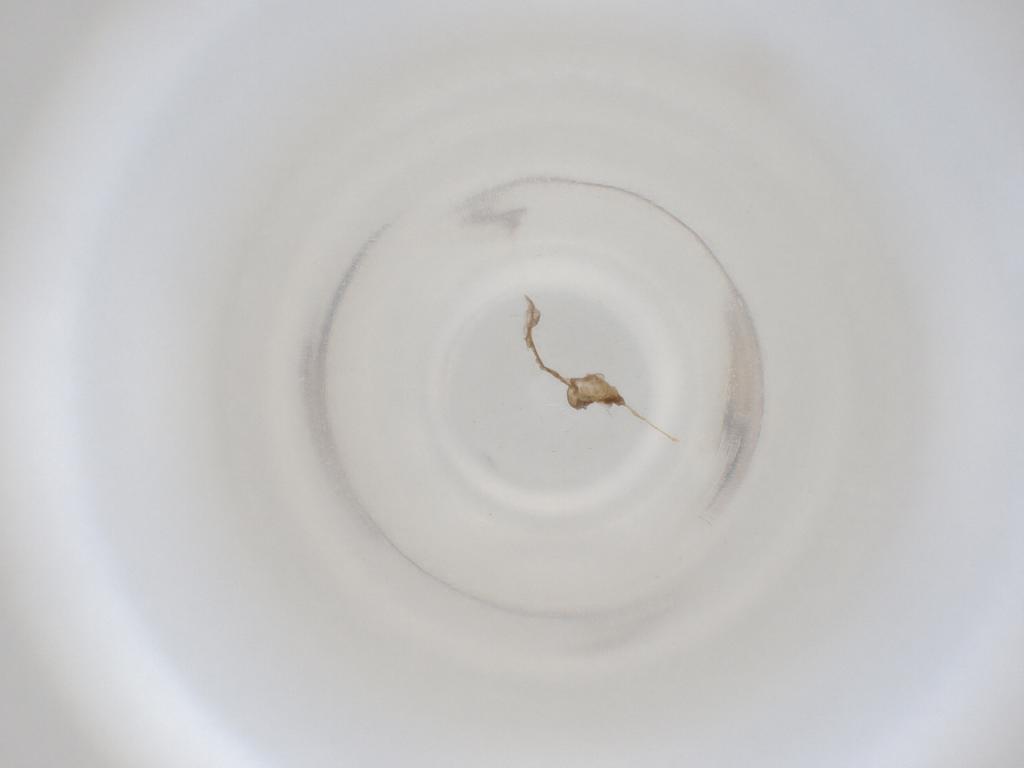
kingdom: Animalia
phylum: Arthropoda
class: Insecta
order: Diptera
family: Cecidomyiidae
